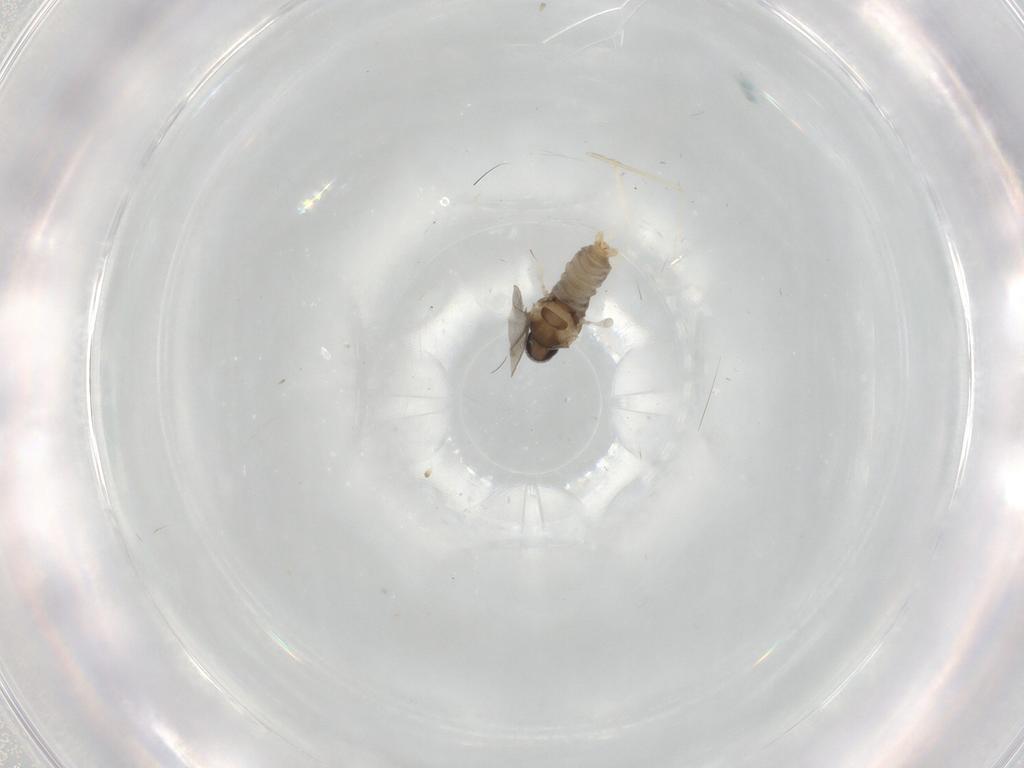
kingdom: Animalia
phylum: Arthropoda
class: Insecta
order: Diptera
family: Cecidomyiidae
